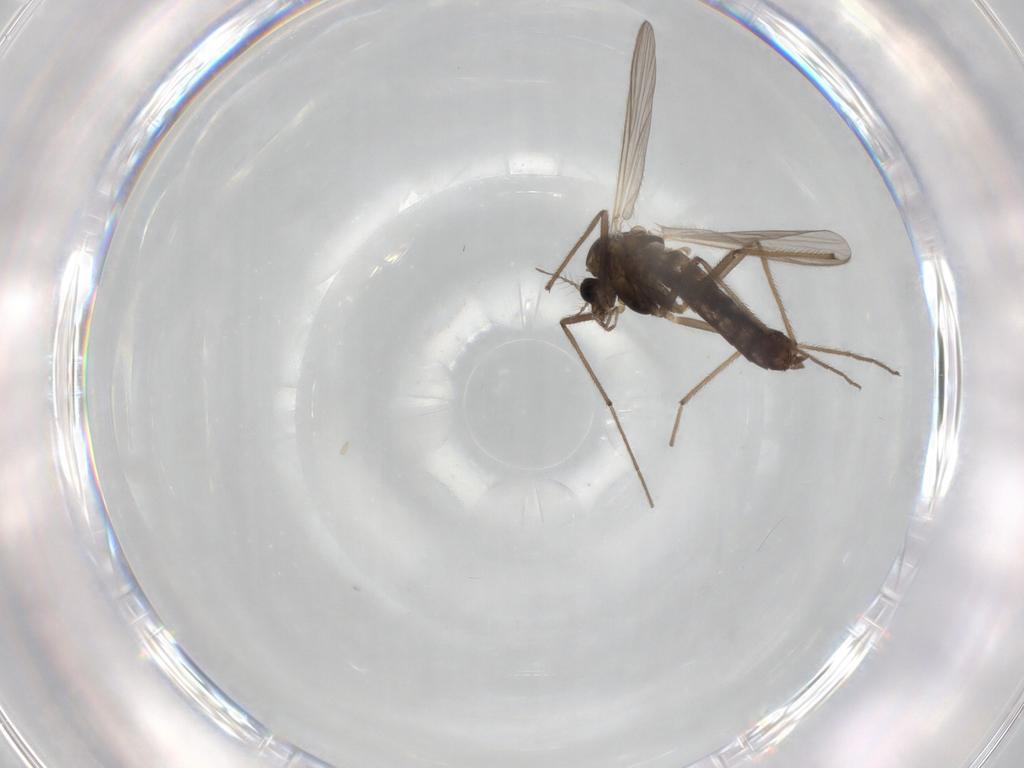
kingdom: Animalia
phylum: Arthropoda
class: Insecta
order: Diptera
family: Chironomidae
